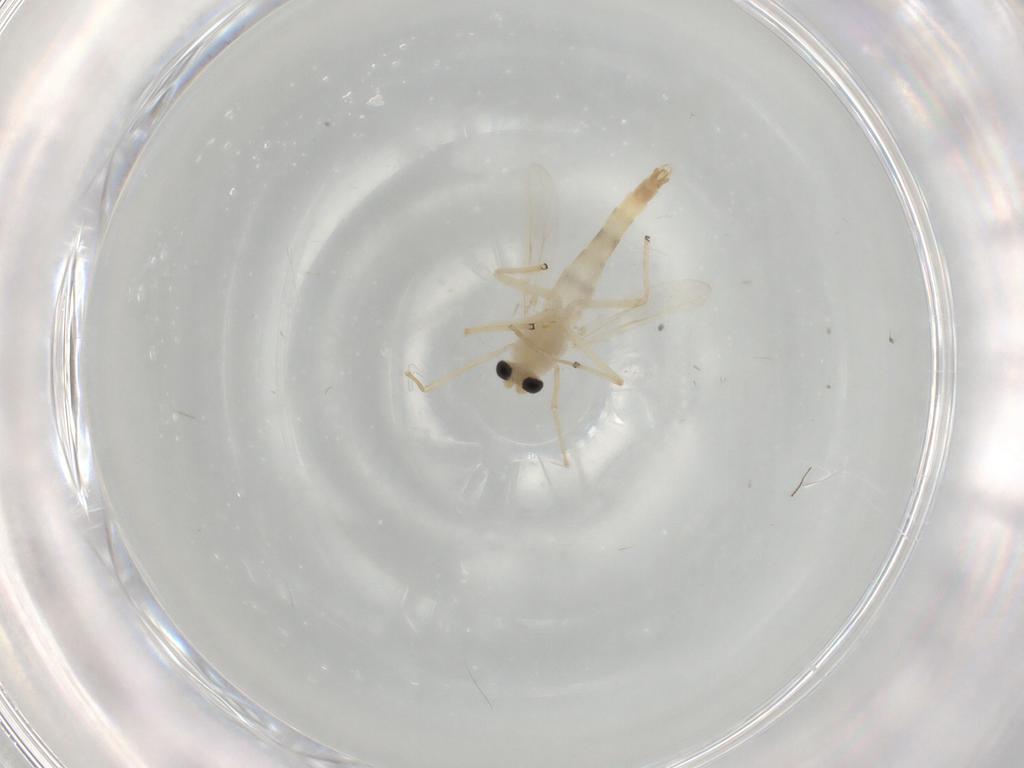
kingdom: Animalia
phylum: Arthropoda
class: Insecta
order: Diptera
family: Chironomidae
